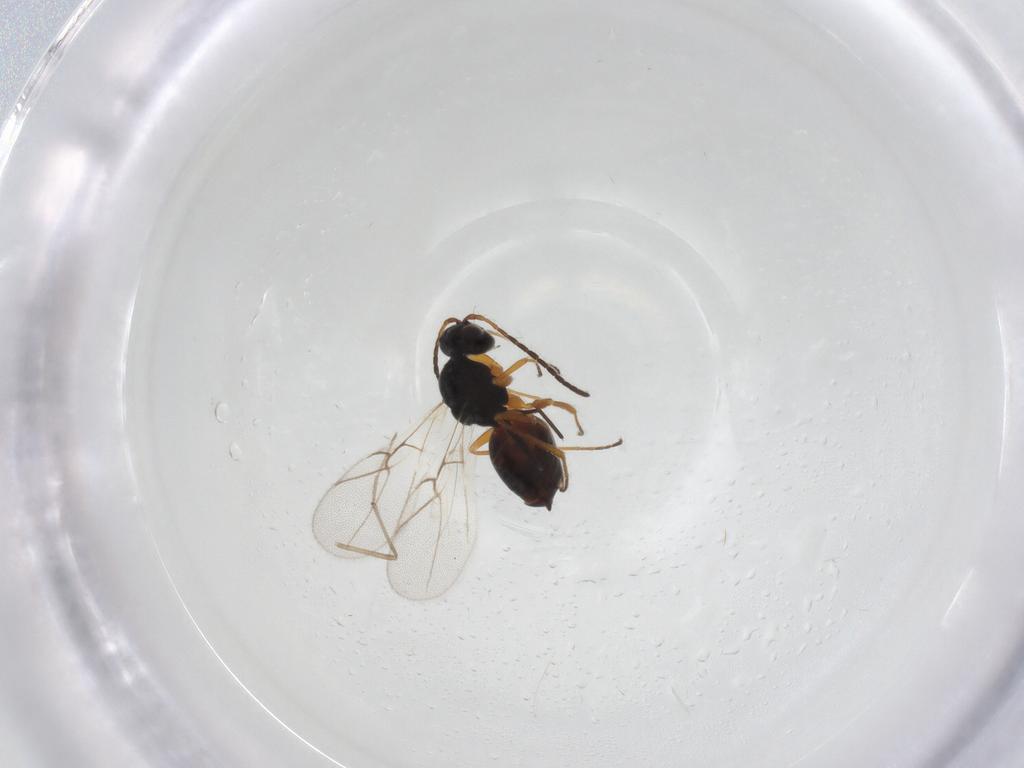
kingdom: Animalia
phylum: Arthropoda
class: Insecta
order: Hymenoptera
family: Cynipidae
